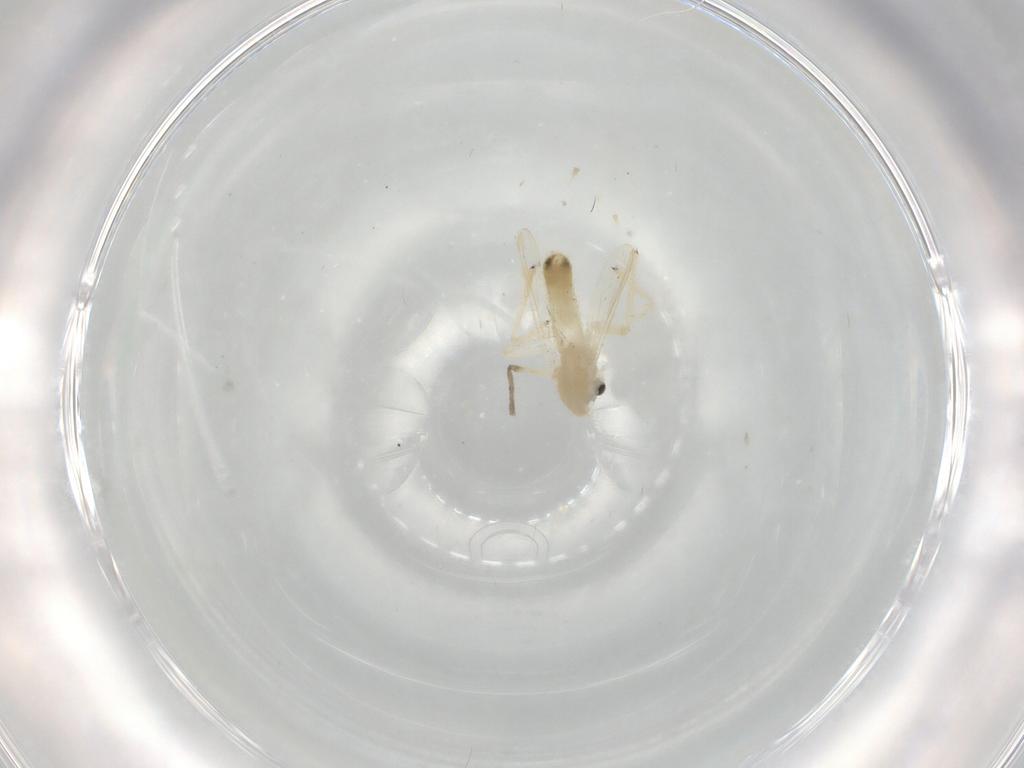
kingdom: Animalia
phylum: Arthropoda
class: Insecta
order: Diptera
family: Chironomidae
